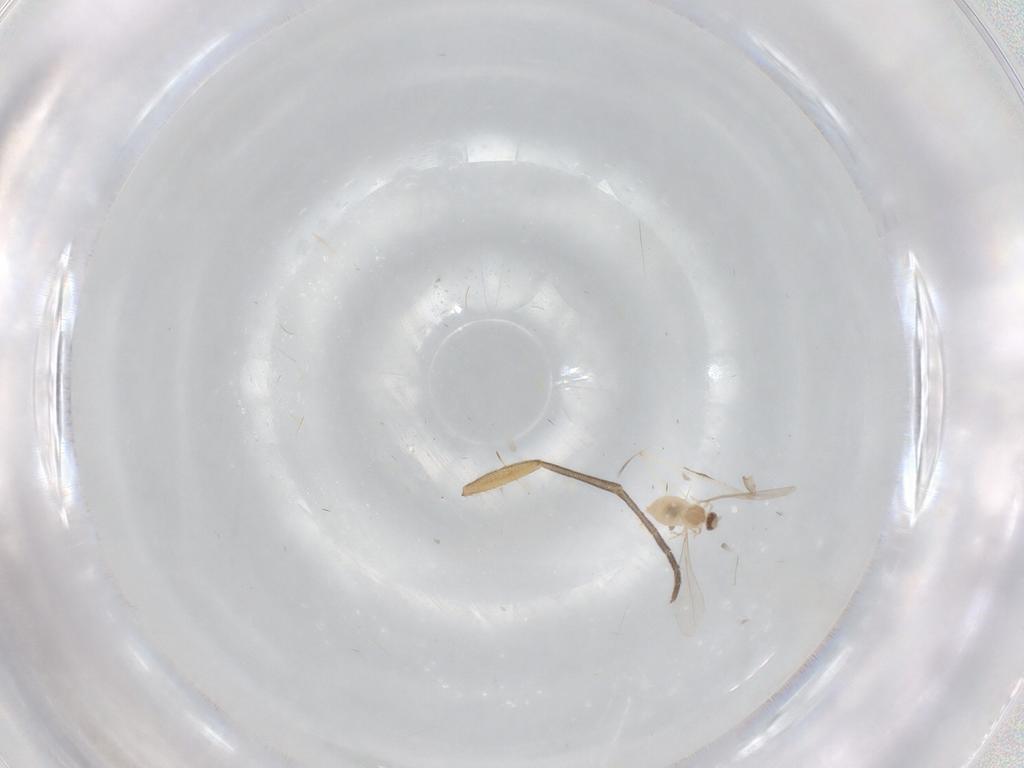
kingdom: Animalia
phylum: Arthropoda
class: Insecta
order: Diptera
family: Cecidomyiidae
